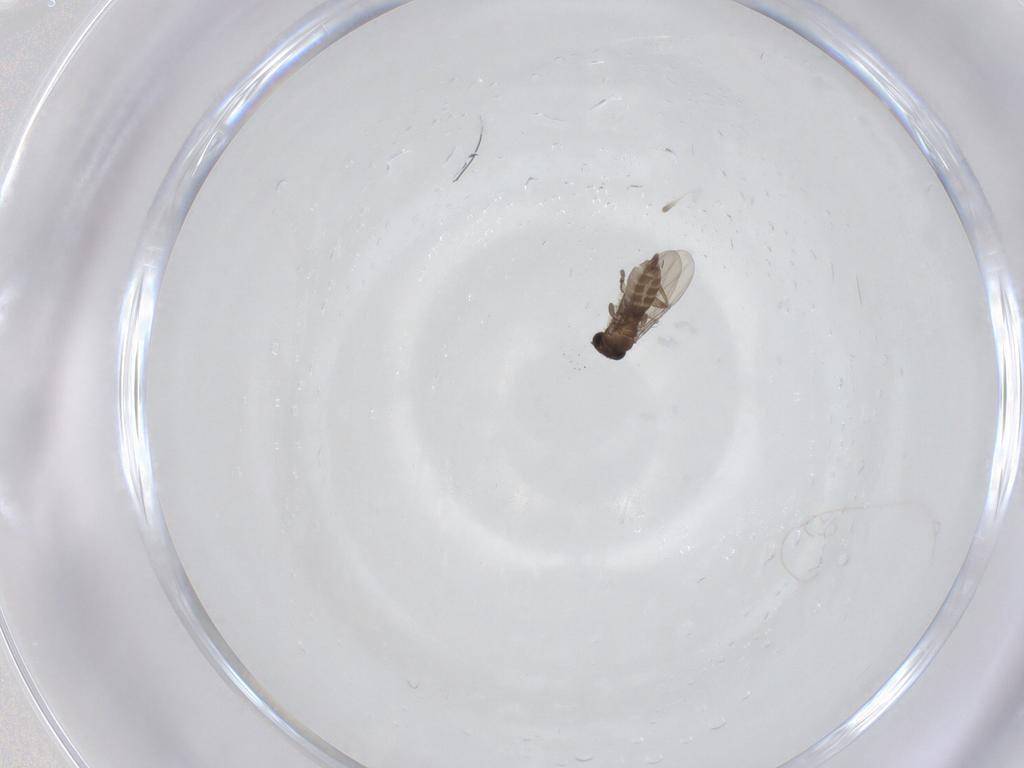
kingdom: Animalia
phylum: Arthropoda
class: Insecta
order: Diptera
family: Phoridae
